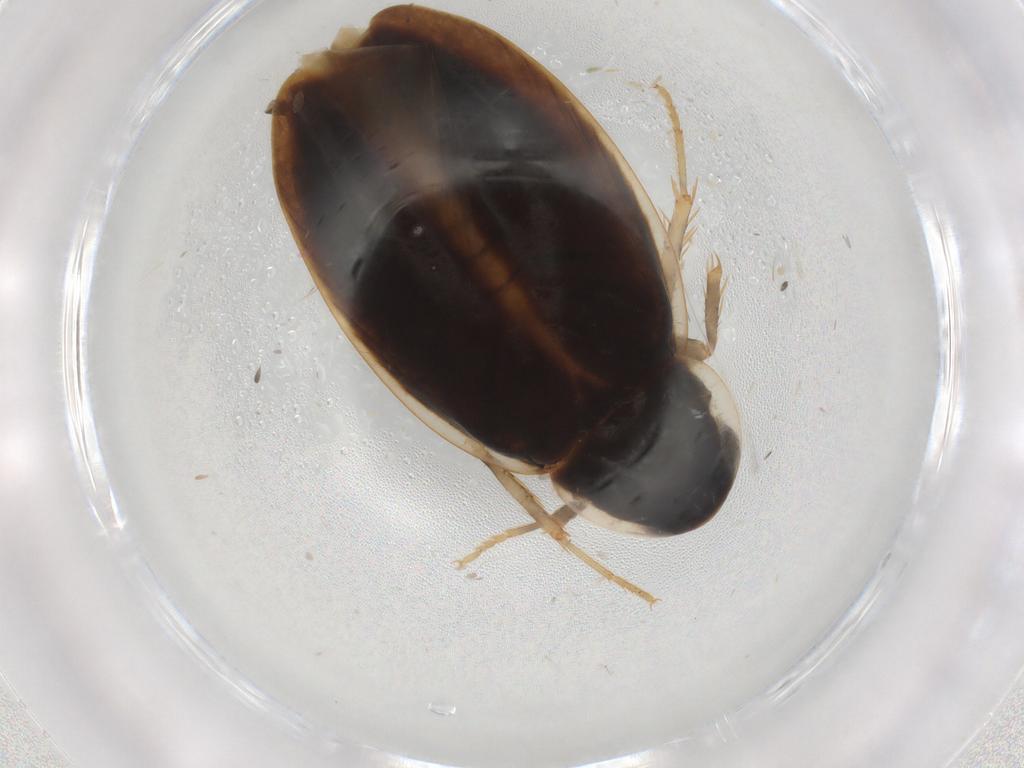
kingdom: Animalia
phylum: Arthropoda
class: Insecta
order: Blattodea
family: Ectobiidae
